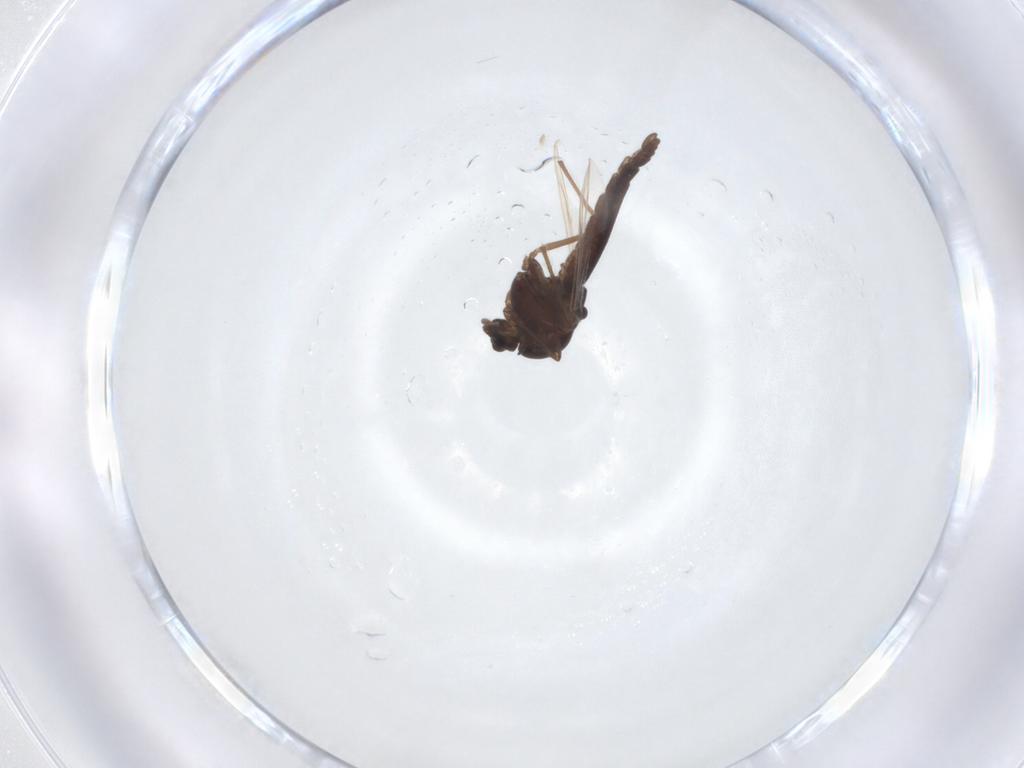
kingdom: Animalia
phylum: Arthropoda
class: Insecta
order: Diptera
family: Chironomidae
